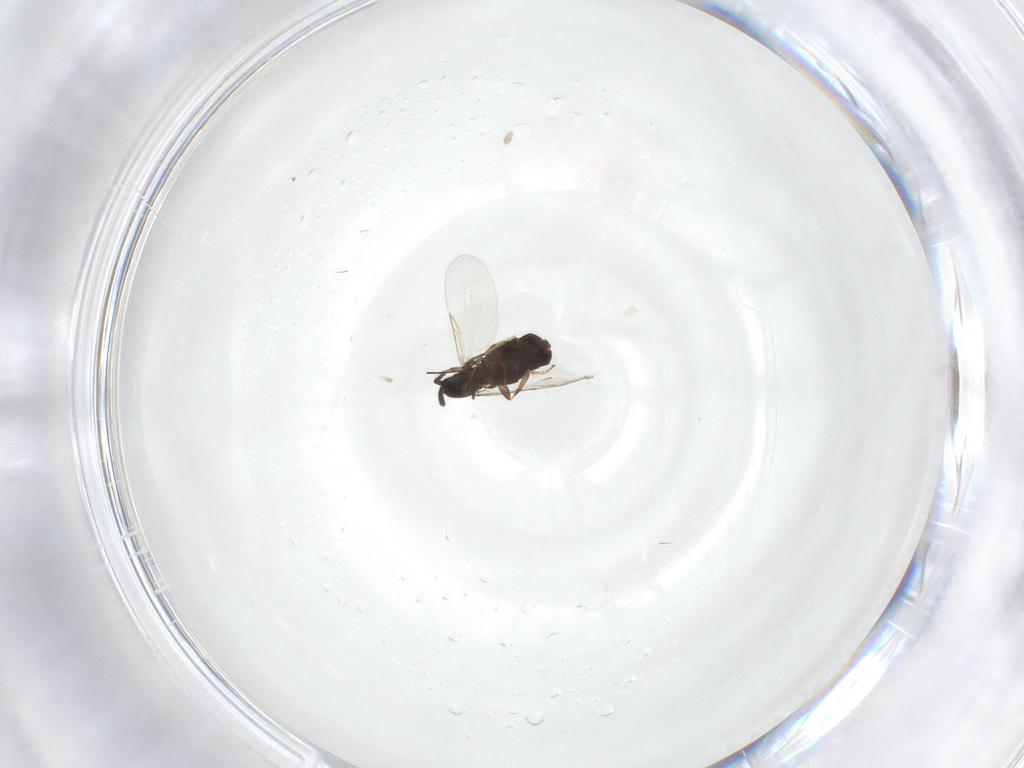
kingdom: Animalia
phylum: Arthropoda
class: Insecta
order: Diptera
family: Scatopsidae
